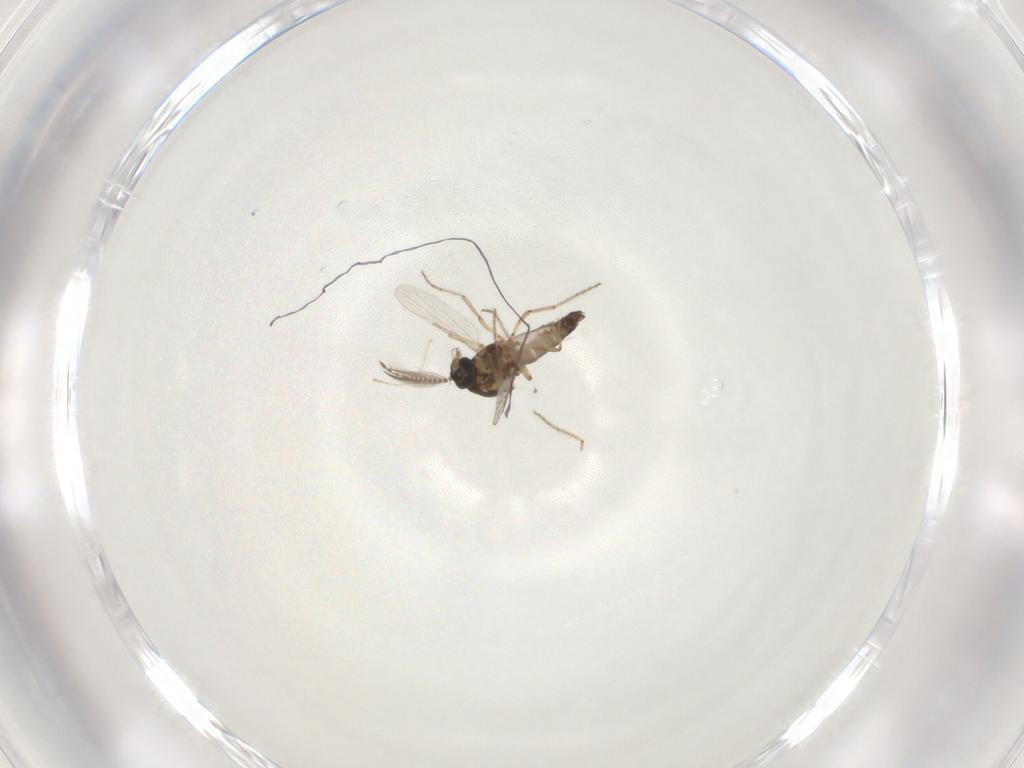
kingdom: Animalia
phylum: Arthropoda
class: Insecta
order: Diptera
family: Ceratopogonidae
